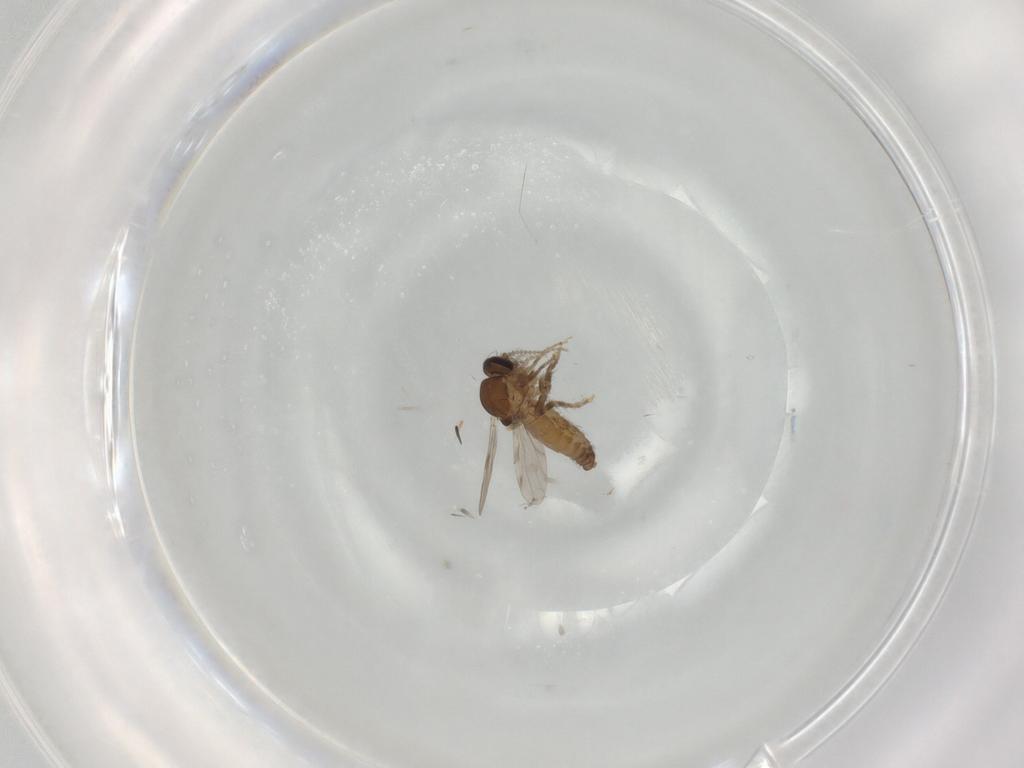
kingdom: Animalia
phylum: Arthropoda
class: Insecta
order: Diptera
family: Ceratopogonidae
